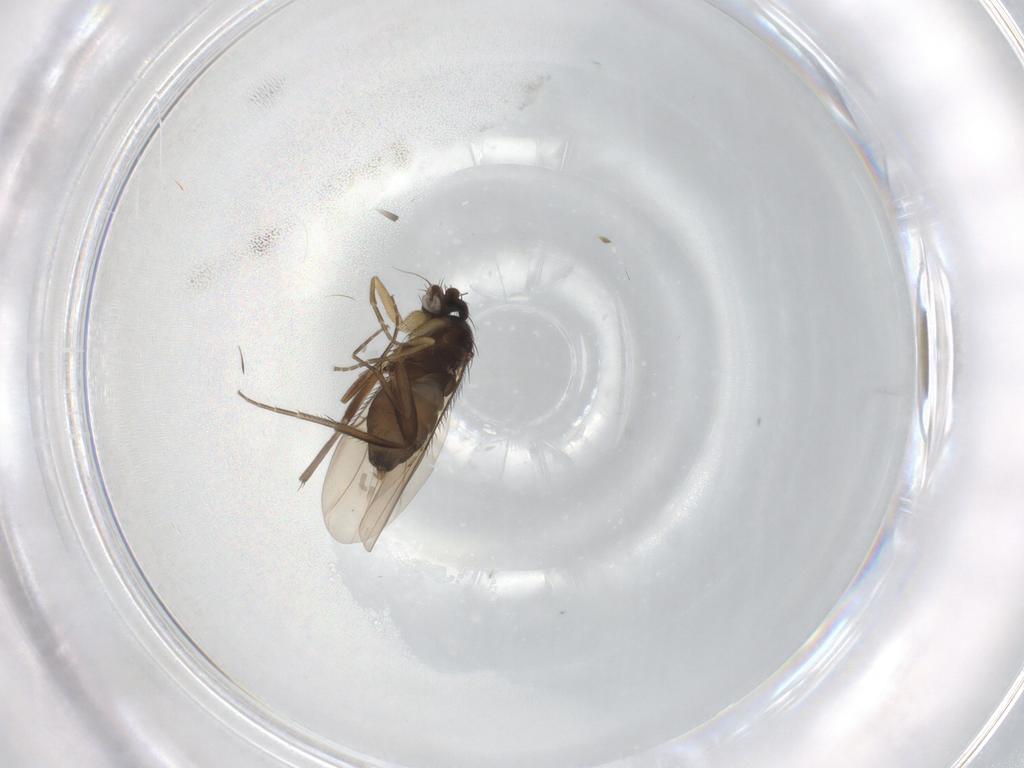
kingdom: Animalia
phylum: Arthropoda
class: Insecta
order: Diptera
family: Phoridae
